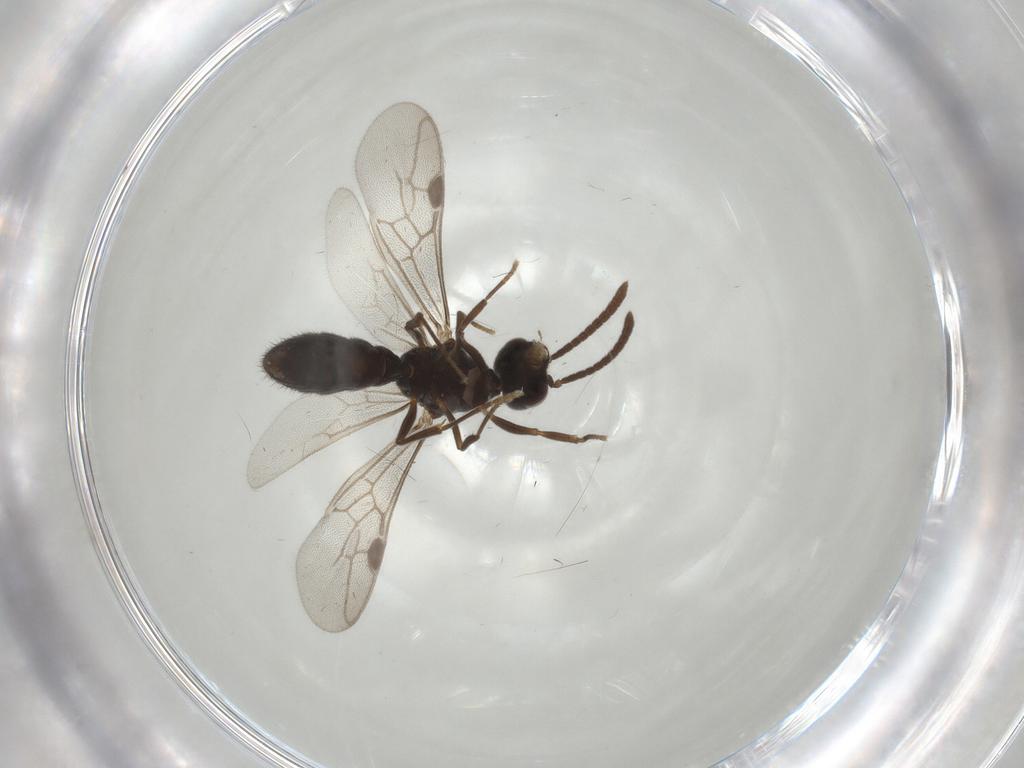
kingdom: Animalia
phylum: Arthropoda
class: Insecta
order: Hymenoptera
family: Formicidae
